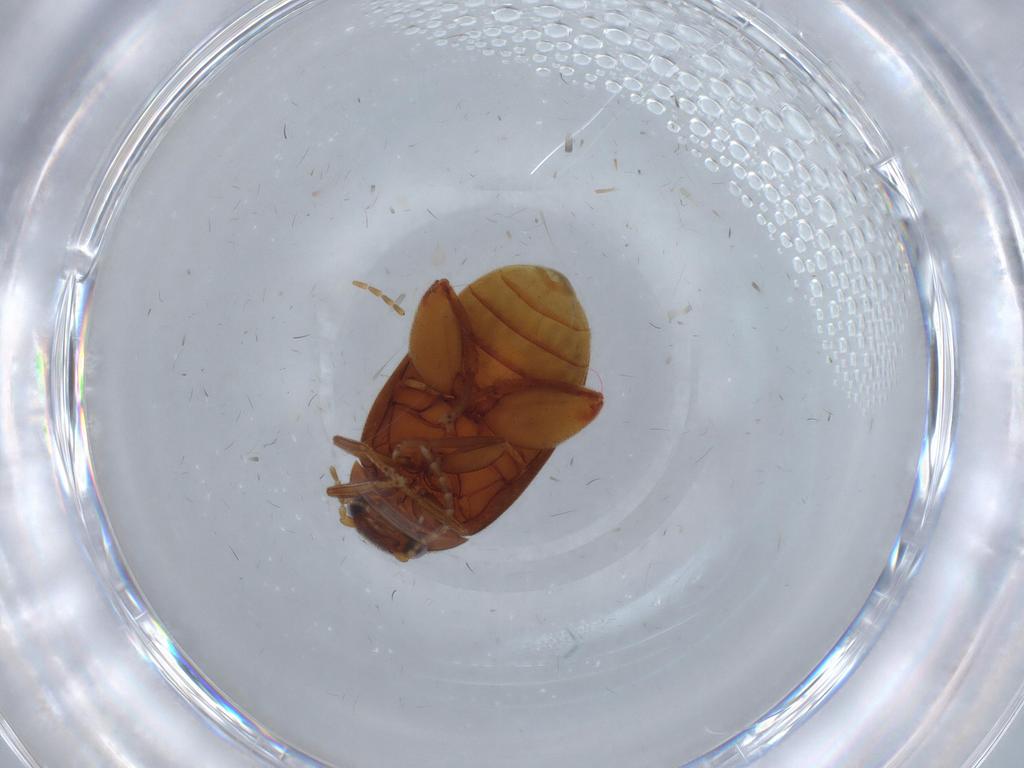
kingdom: Animalia
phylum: Arthropoda
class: Insecta
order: Coleoptera
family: Scirtidae
